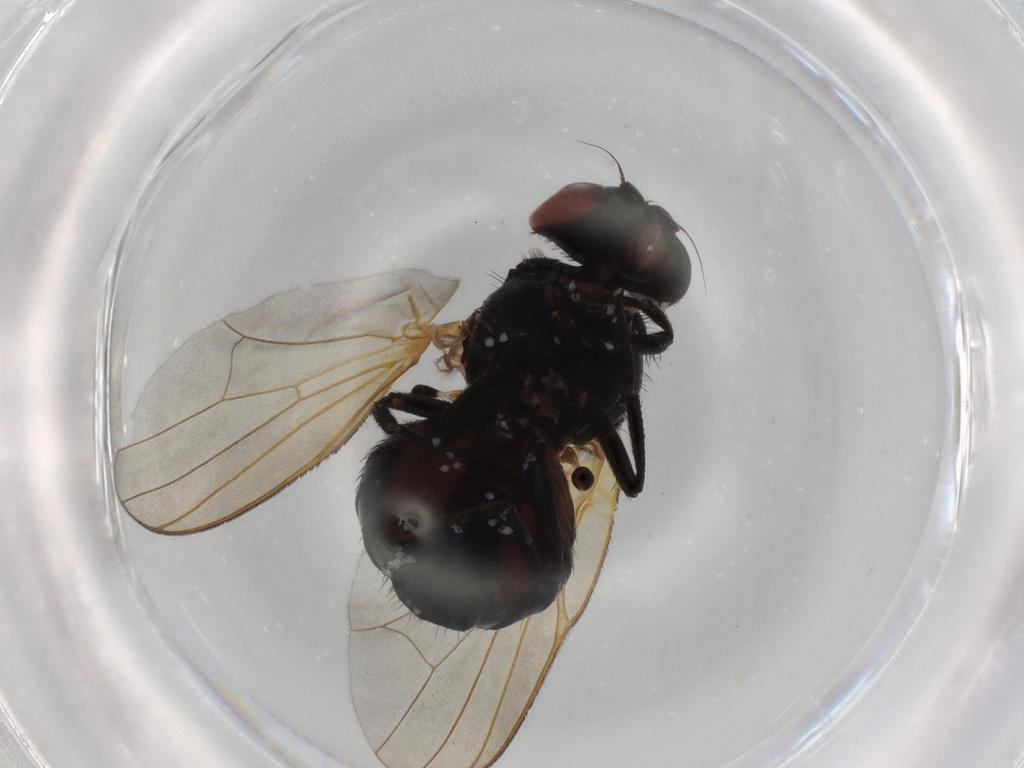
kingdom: Animalia
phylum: Arthropoda
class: Insecta
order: Diptera
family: Lonchaeidae
